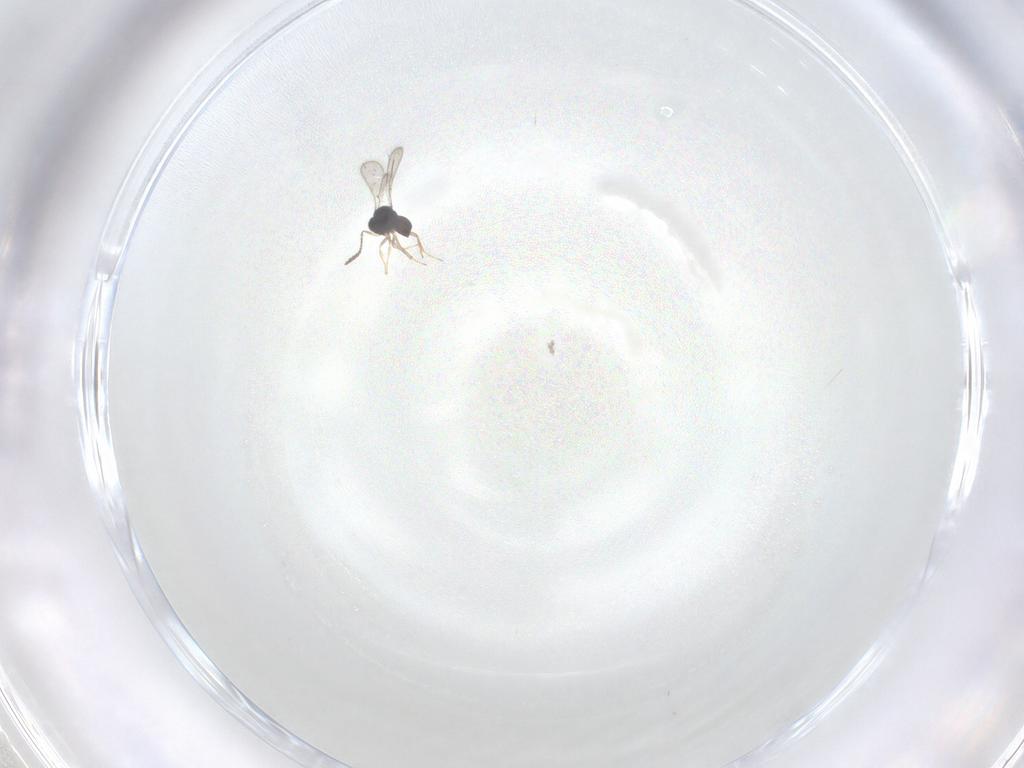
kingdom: Animalia
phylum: Arthropoda
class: Insecta
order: Hymenoptera
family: Scelionidae
